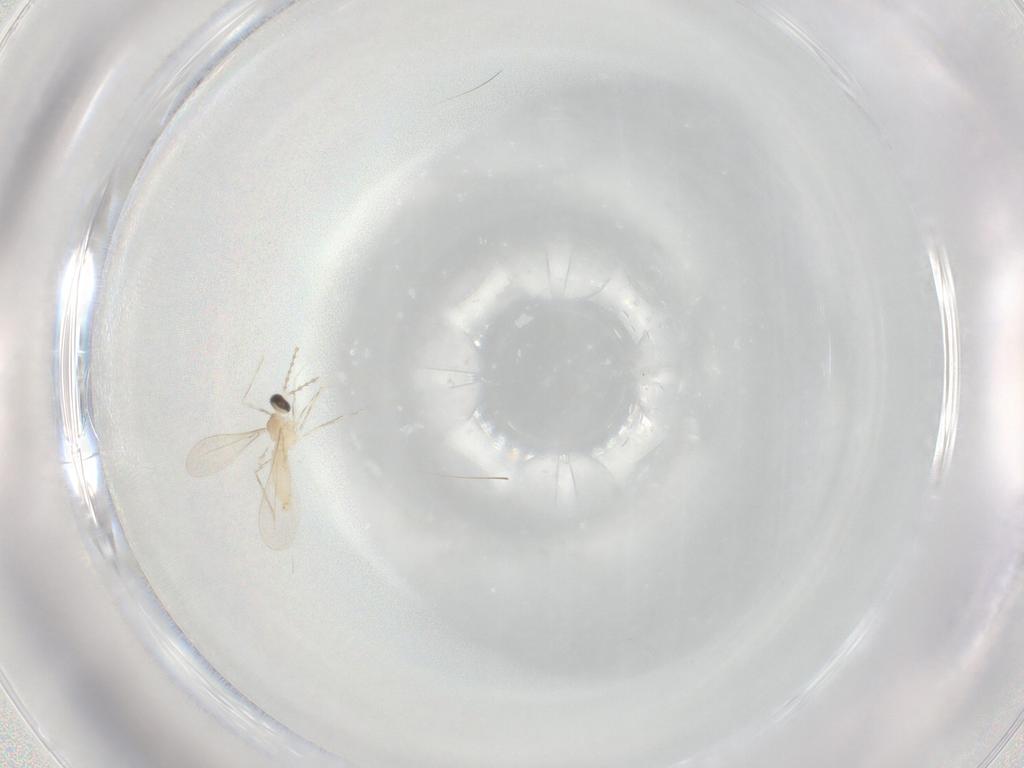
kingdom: Animalia
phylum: Arthropoda
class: Insecta
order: Diptera
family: Cecidomyiidae
